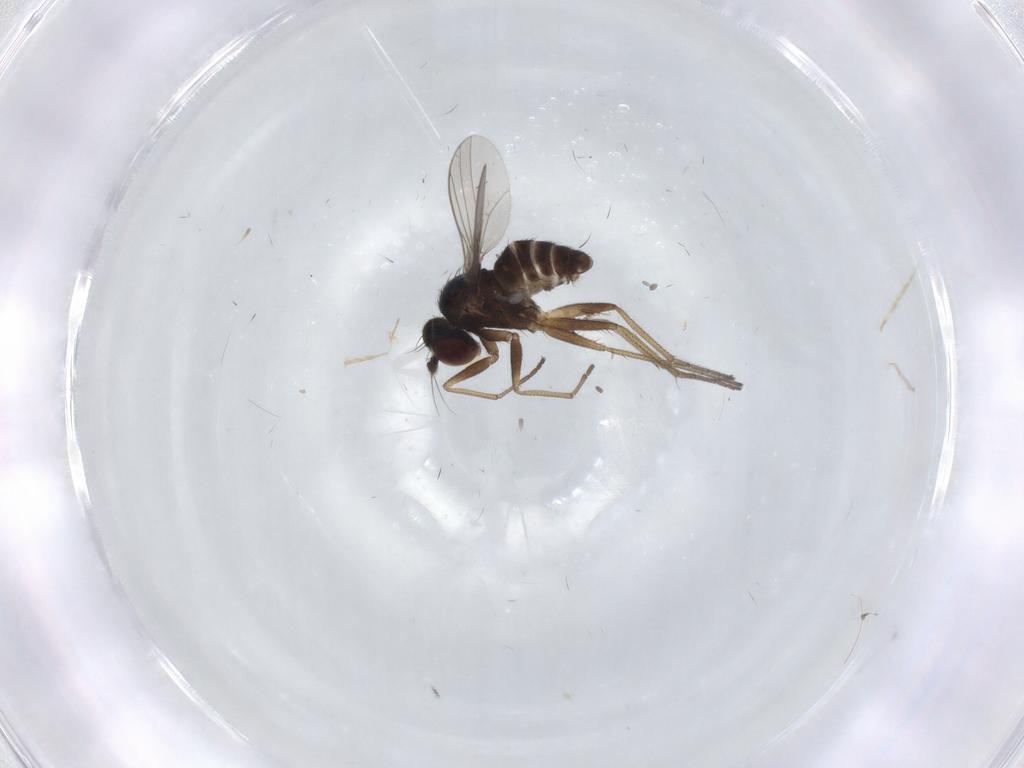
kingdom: Animalia
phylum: Arthropoda
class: Insecta
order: Diptera
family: Dolichopodidae
